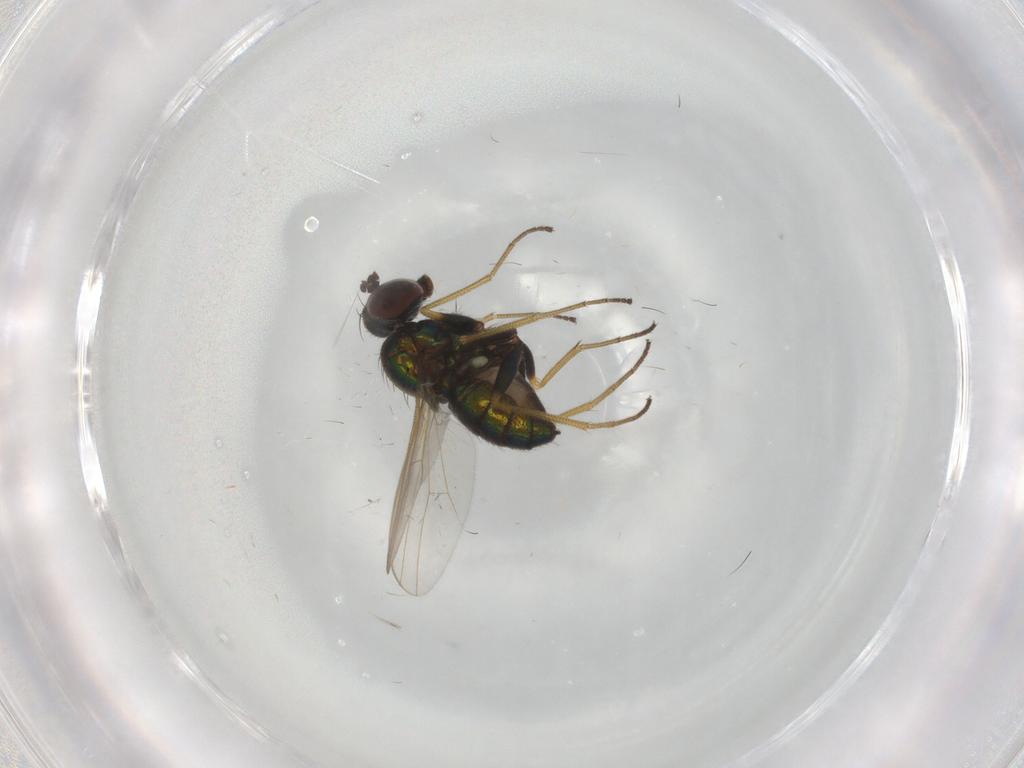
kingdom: Animalia
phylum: Arthropoda
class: Insecta
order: Diptera
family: Dolichopodidae
